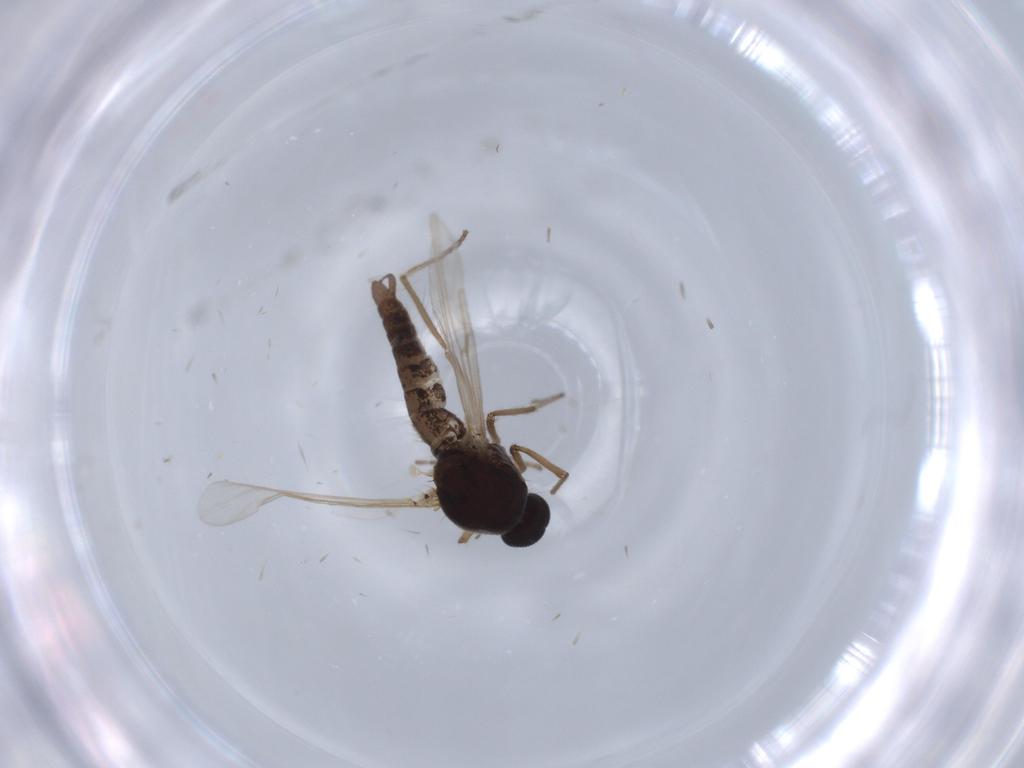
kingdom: Animalia
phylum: Arthropoda
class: Insecta
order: Diptera
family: Ceratopogonidae
